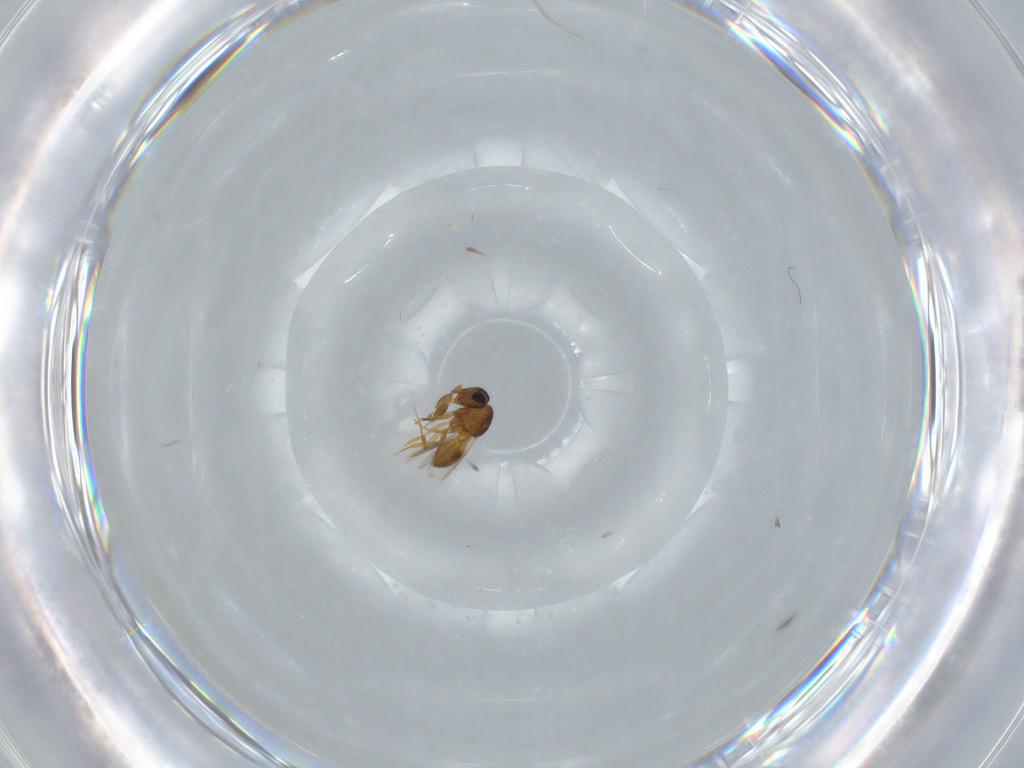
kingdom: Animalia
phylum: Arthropoda
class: Insecta
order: Hymenoptera
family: Scelionidae
